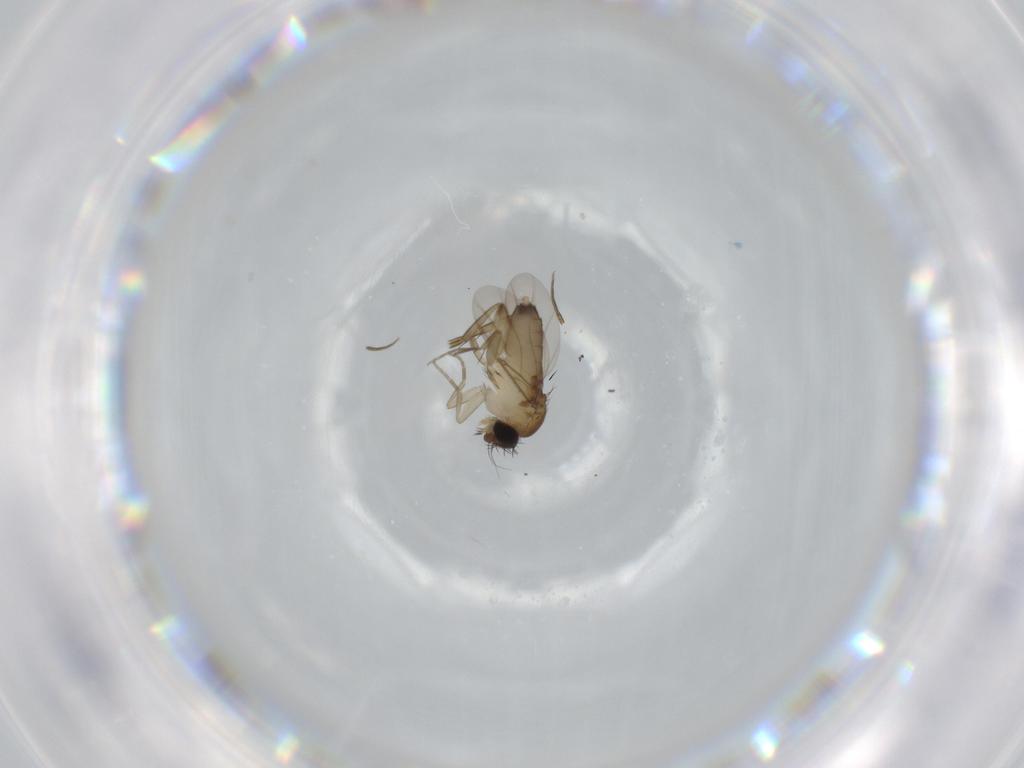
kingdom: Animalia
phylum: Arthropoda
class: Insecta
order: Diptera
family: Phoridae
